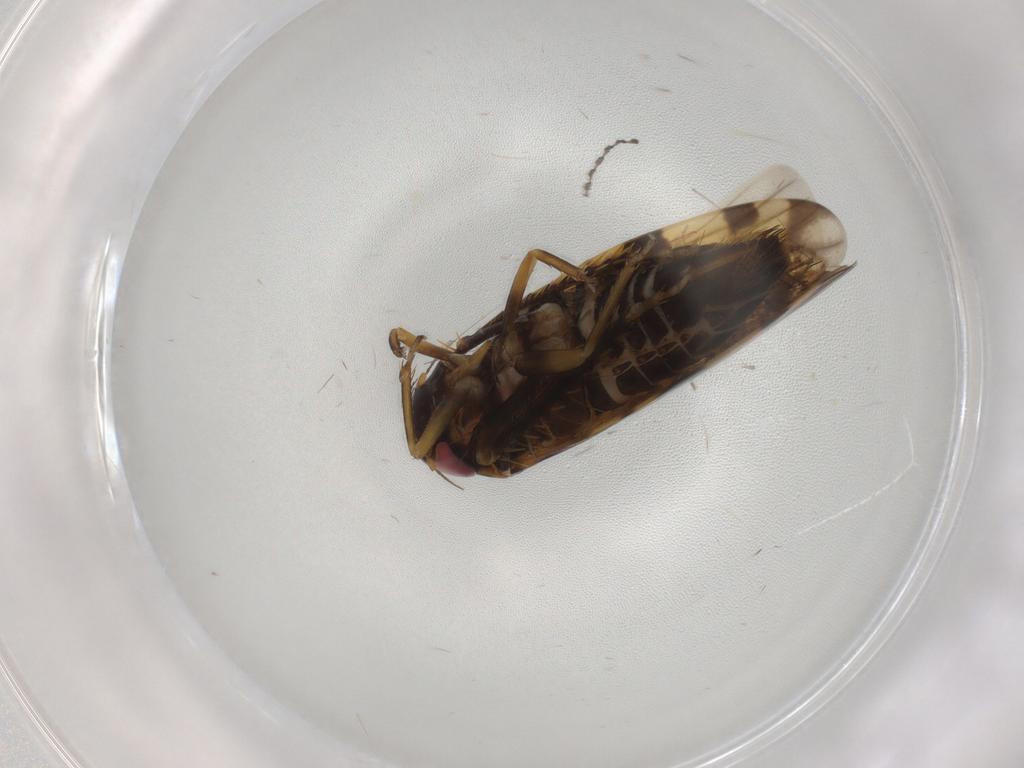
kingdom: Animalia
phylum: Arthropoda
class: Insecta
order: Hemiptera
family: Cicadellidae
